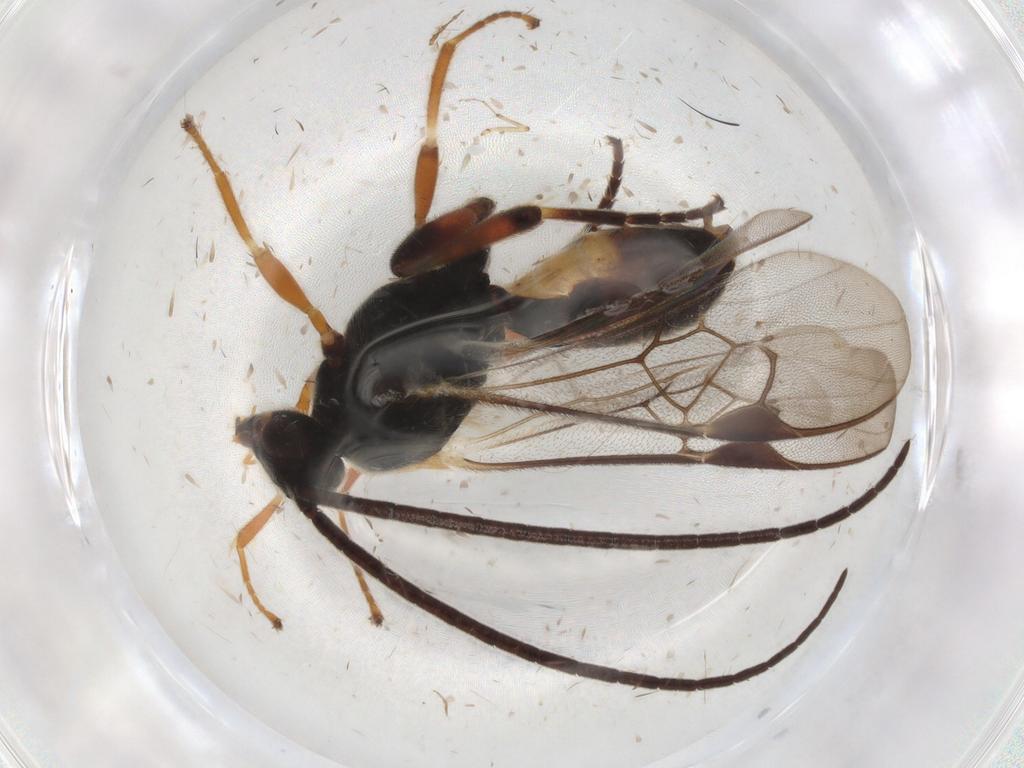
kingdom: Animalia
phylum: Arthropoda
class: Insecta
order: Hymenoptera
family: Braconidae
